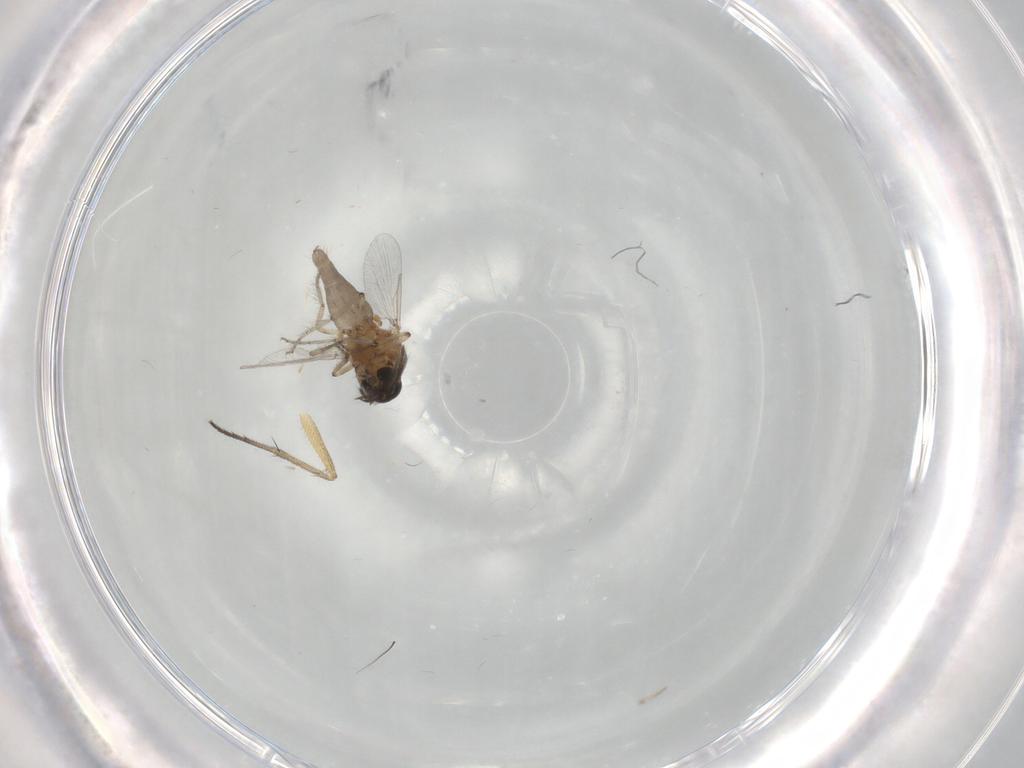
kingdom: Animalia
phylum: Arthropoda
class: Insecta
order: Diptera
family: Ceratopogonidae
